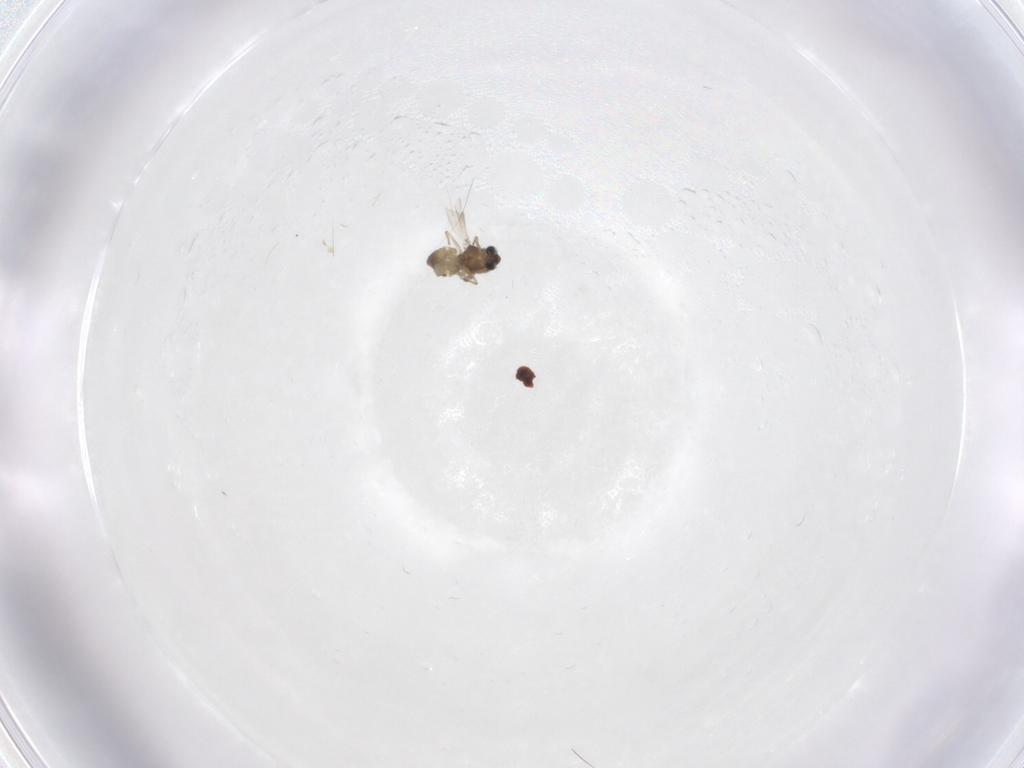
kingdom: Animalia
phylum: Arthropoda
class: Insecta
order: Diptera
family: Chironomidae
